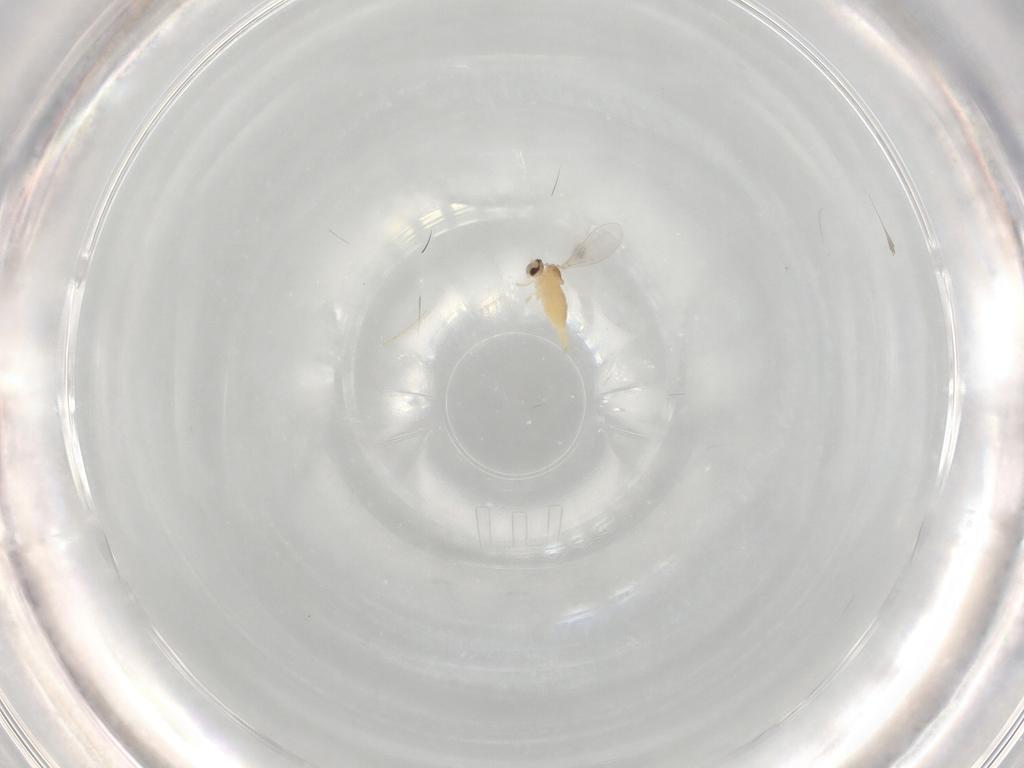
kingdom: Animalia
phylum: Arthropoda
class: Insecta
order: Diptera
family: Cecidomyiidae
